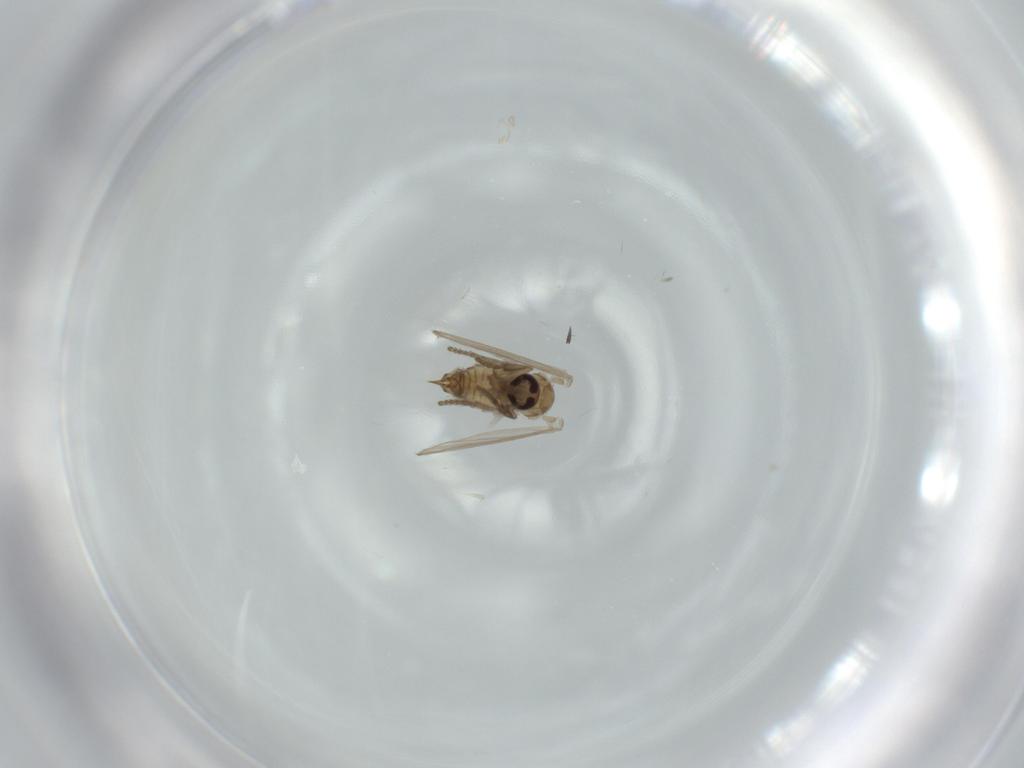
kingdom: Animalia
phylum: Arthropoda
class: Insecta
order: Diptera
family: Psychodidae
